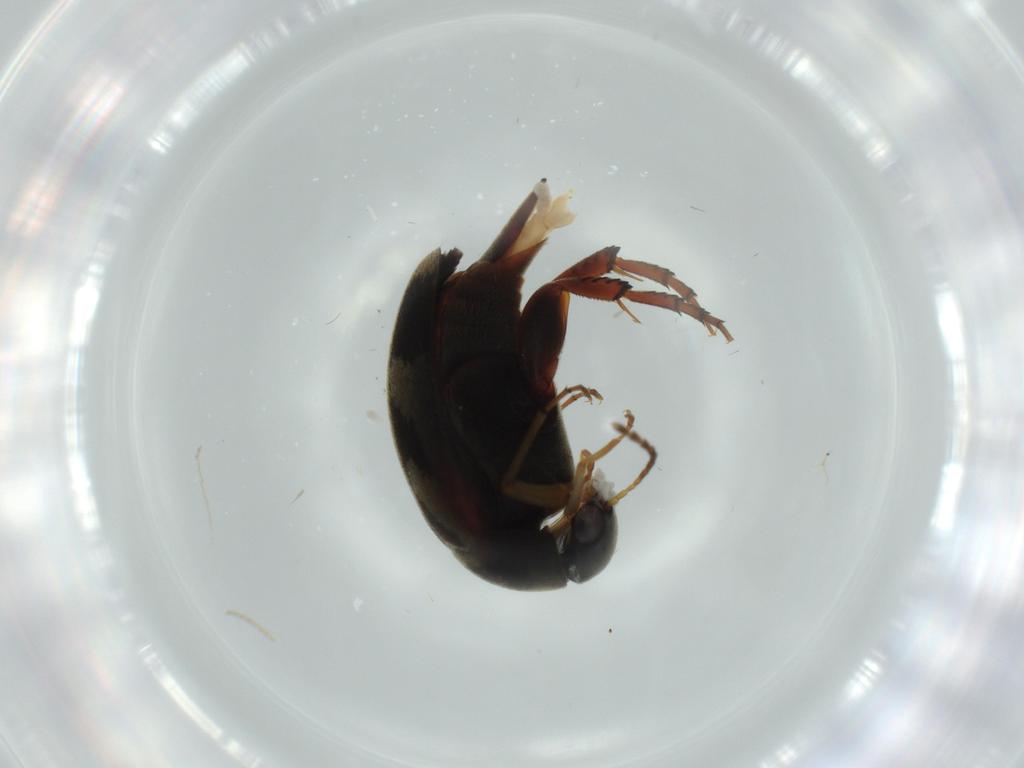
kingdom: Animalia
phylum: Arthropoda
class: Insecta
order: Coleoptera
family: Mordellidae
